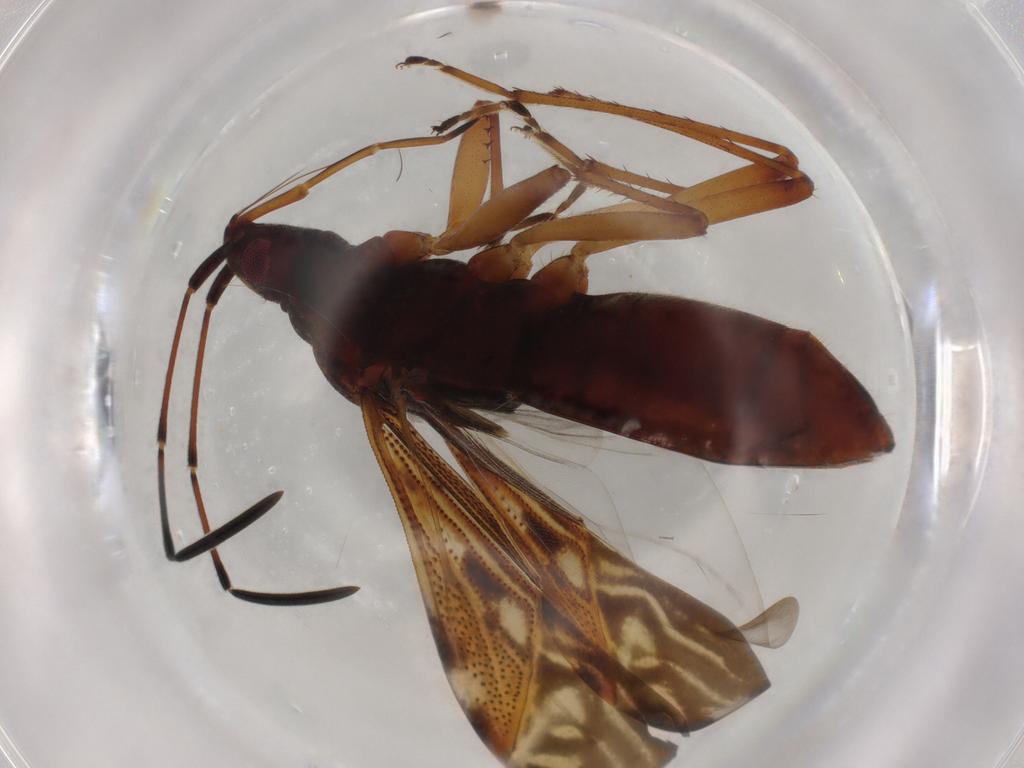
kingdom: Animalia
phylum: Arthropoda
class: Insecta
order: Hemiptera
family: Rhyparochromidae
